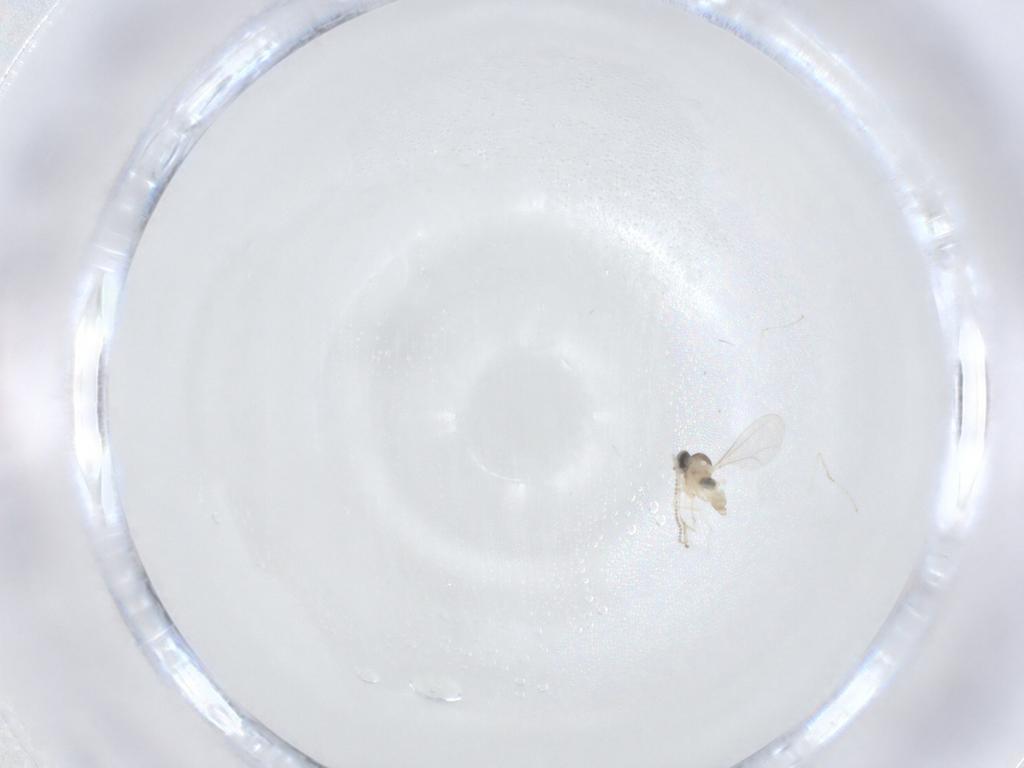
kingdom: Animalia
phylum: Arthropoda
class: Insecta
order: Diptera
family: Cecidomyiidae
